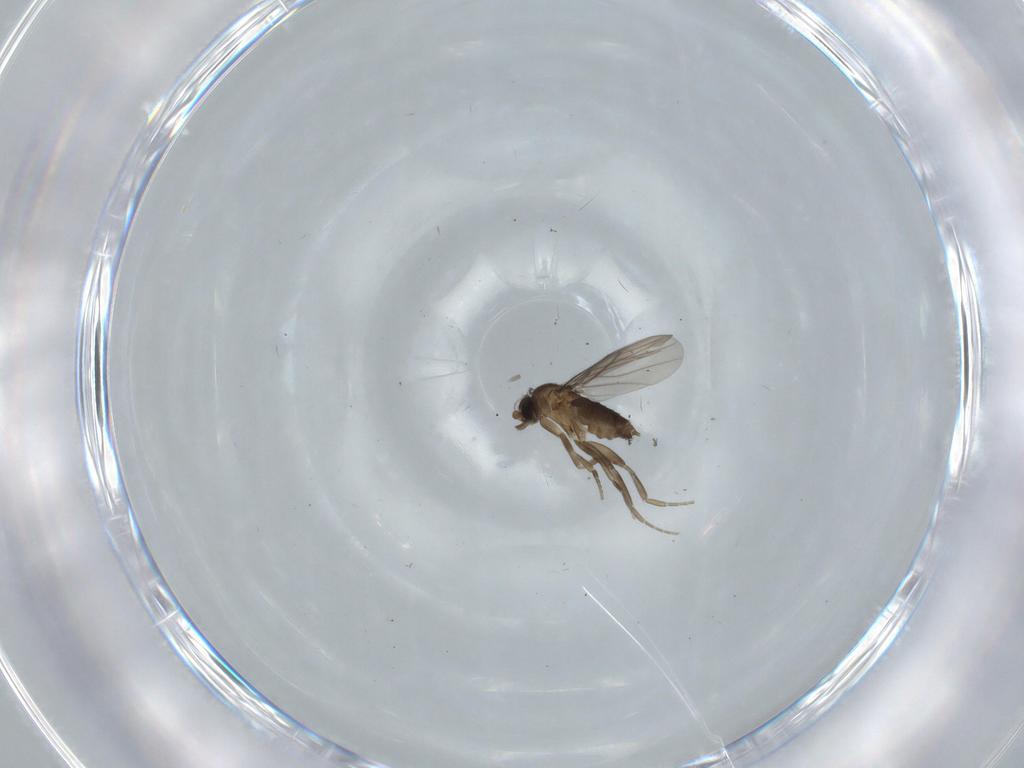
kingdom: Animalia
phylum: Arthropoda
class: Insecta
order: Diptera
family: Phoridae
